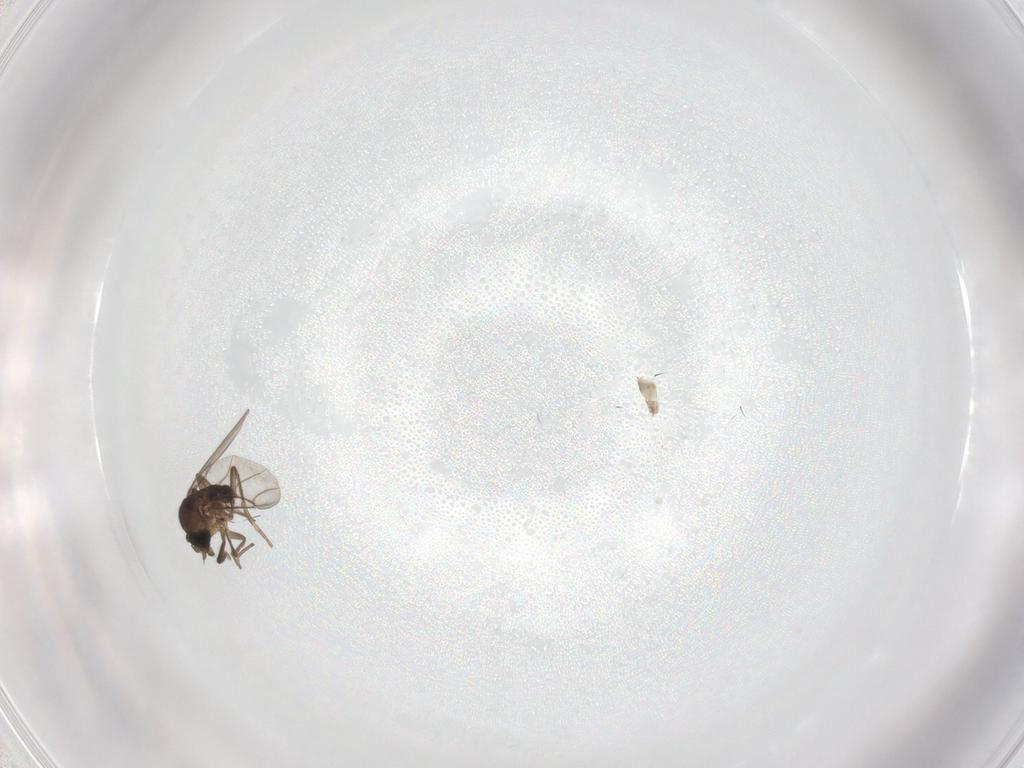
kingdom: Animalia
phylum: Arthropoda
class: Insecta
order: Diptera
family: Phoridae
